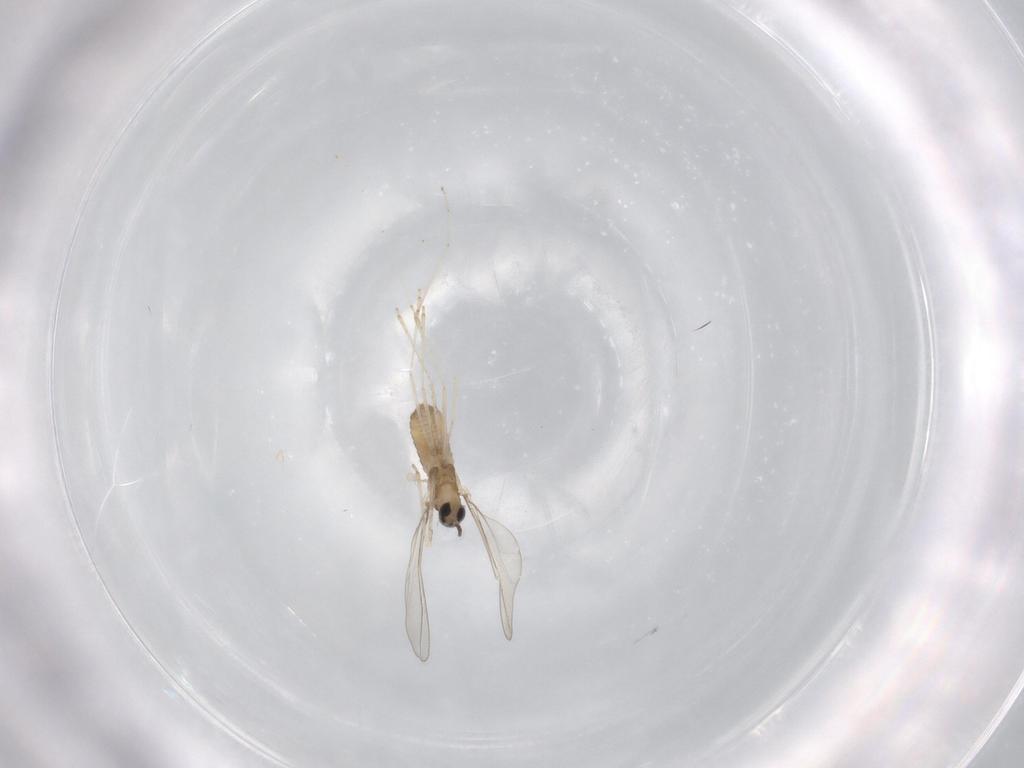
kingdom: Animalia
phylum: Arthropoda
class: Insecta
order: Diptera
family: Cecidomyiidae
